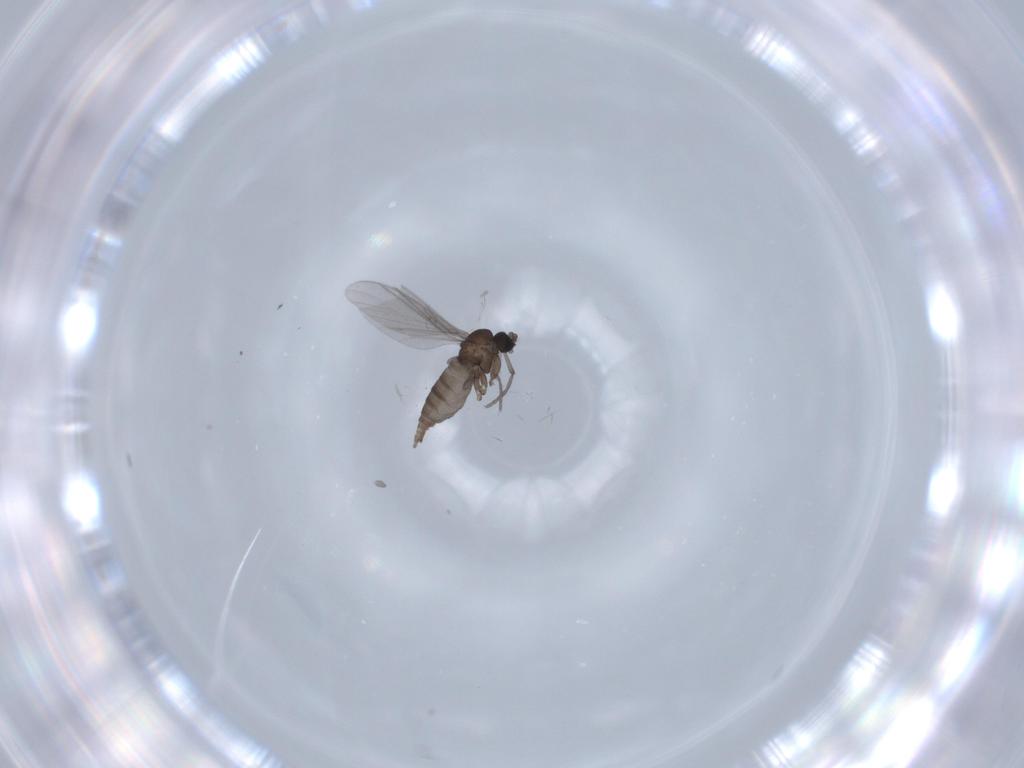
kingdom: Animalia
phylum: Arthropoda
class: Insecta
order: Diptera
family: Sciaridae
